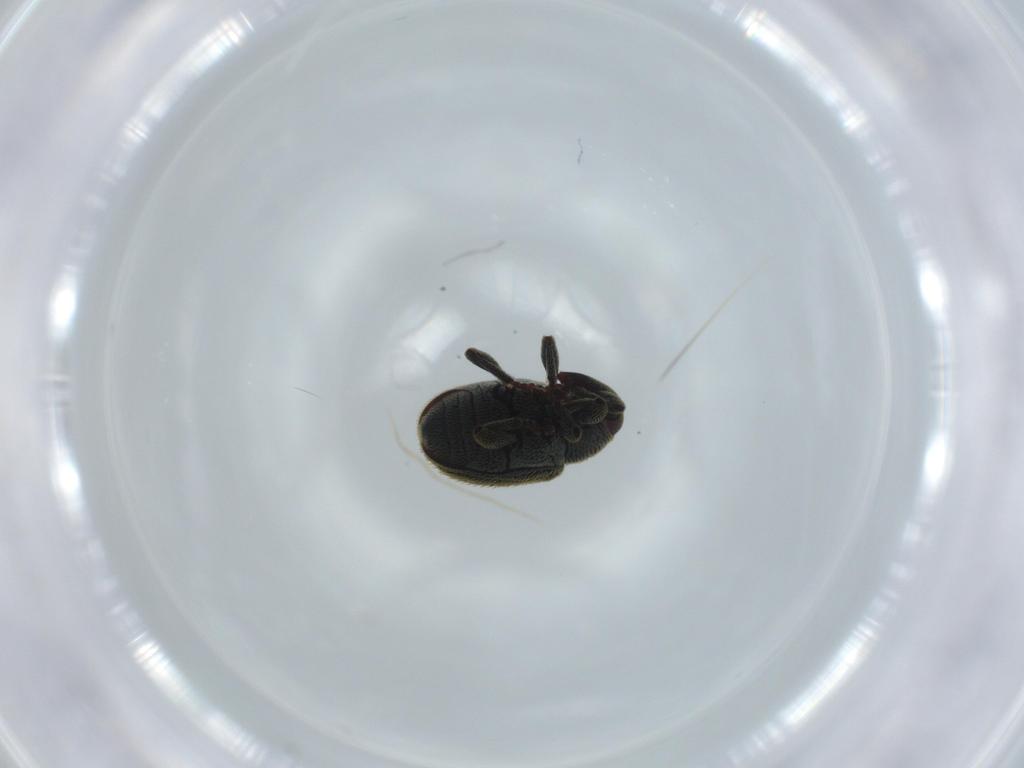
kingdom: Animalia
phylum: Arthropoda
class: Insecta
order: Coleoptera
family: Curculionidae
